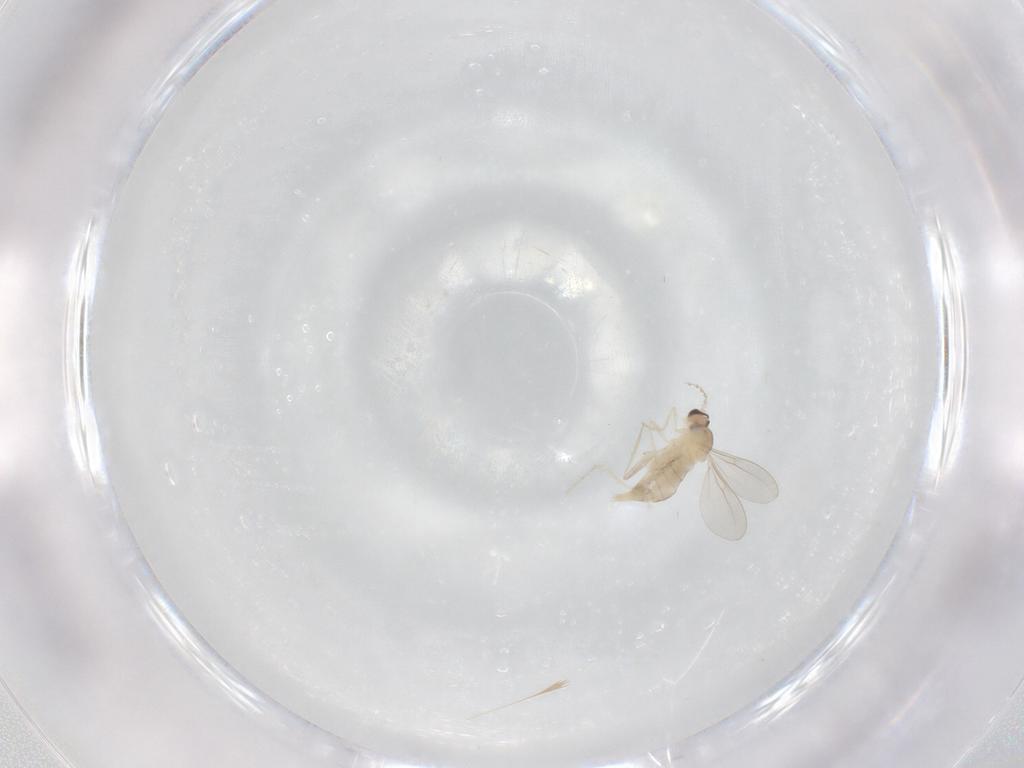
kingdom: Animalia
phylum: Arthropoda
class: Insecta
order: Diptera
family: Cecidomyiidae
